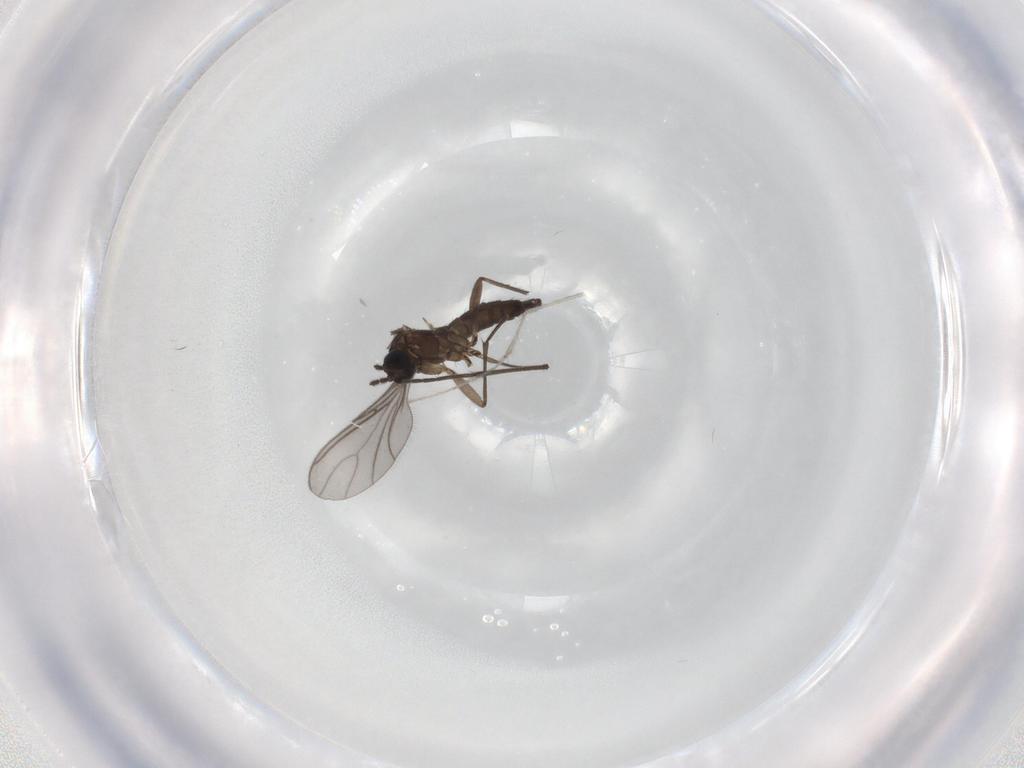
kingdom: Animalia
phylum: Arthropoda
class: Insecta
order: Diptera
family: Sciaridae
